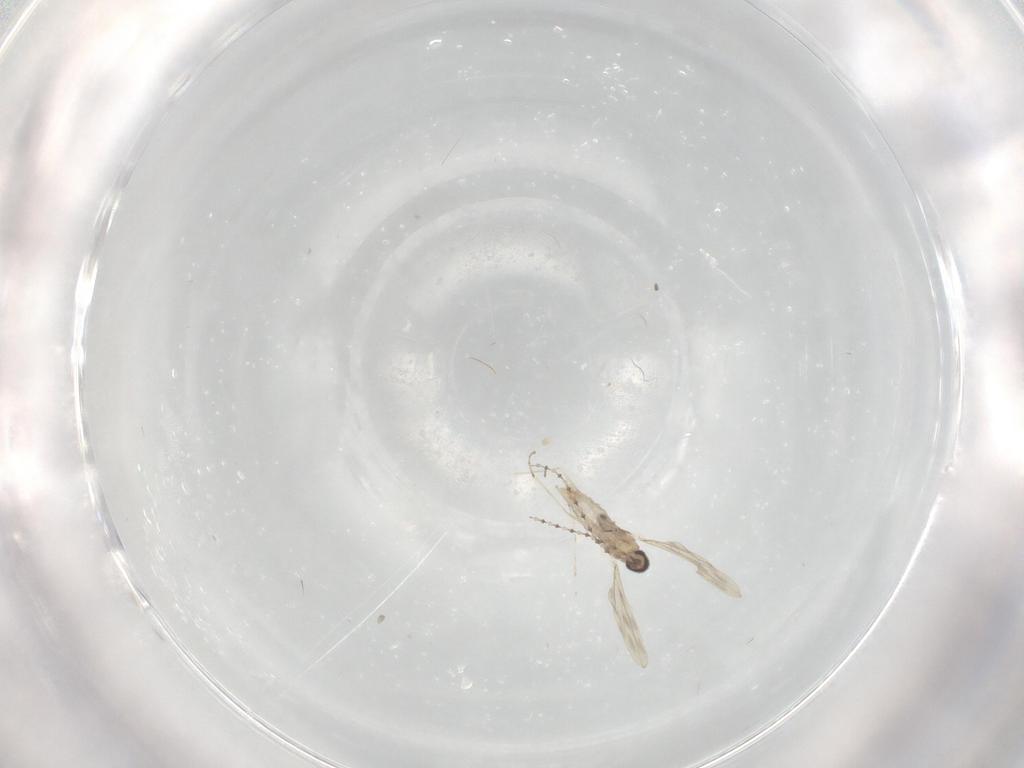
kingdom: Animalia
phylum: Arthropoda
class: Insecta
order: Diptera
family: Cecidomyiidae
